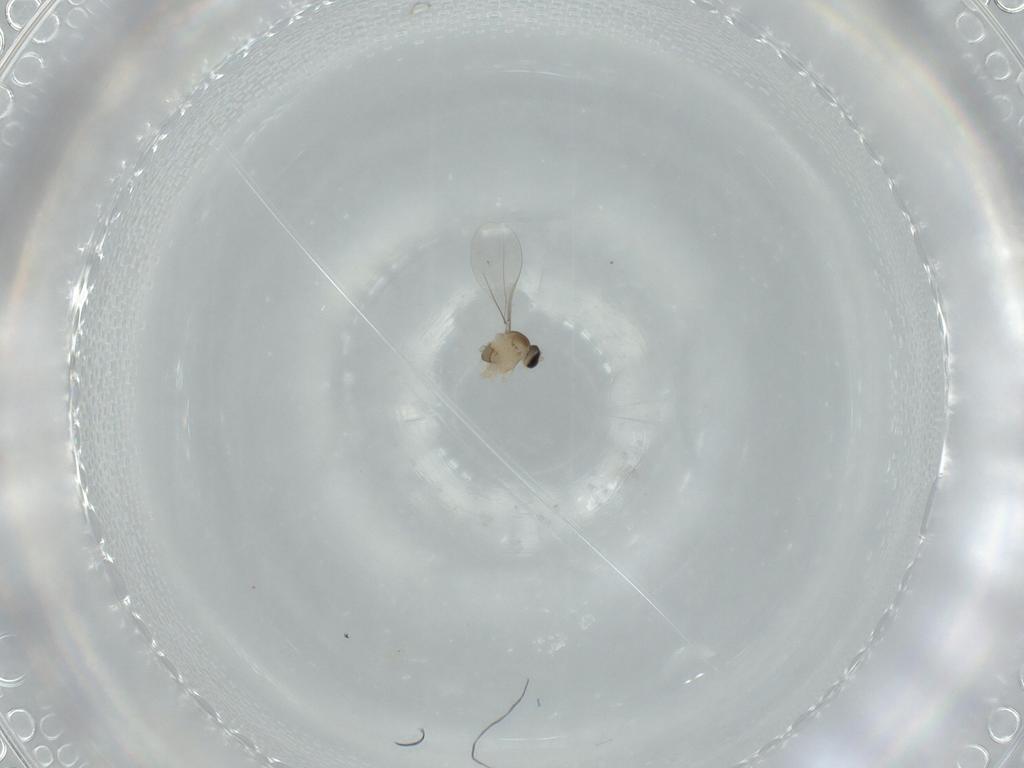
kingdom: Animalia
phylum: Arthropoda
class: Insecta
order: Diptera
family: Cecidomyiidae
